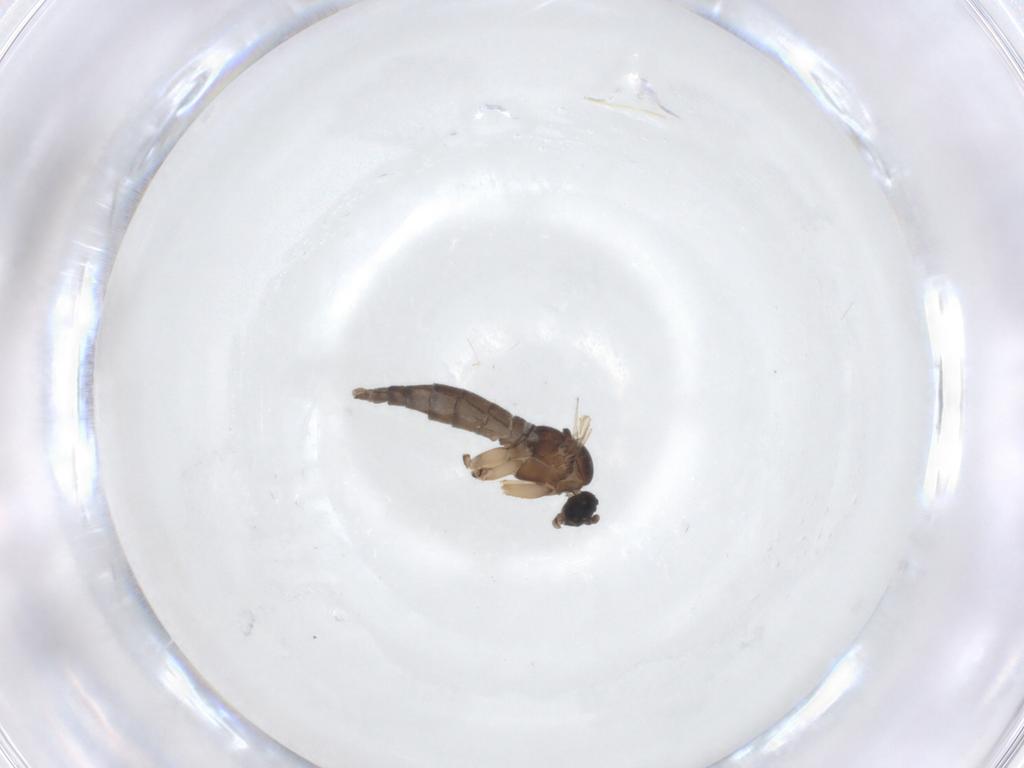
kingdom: Animalia
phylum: Arthropoda
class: Insecta
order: Diptera
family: Sciaridae
